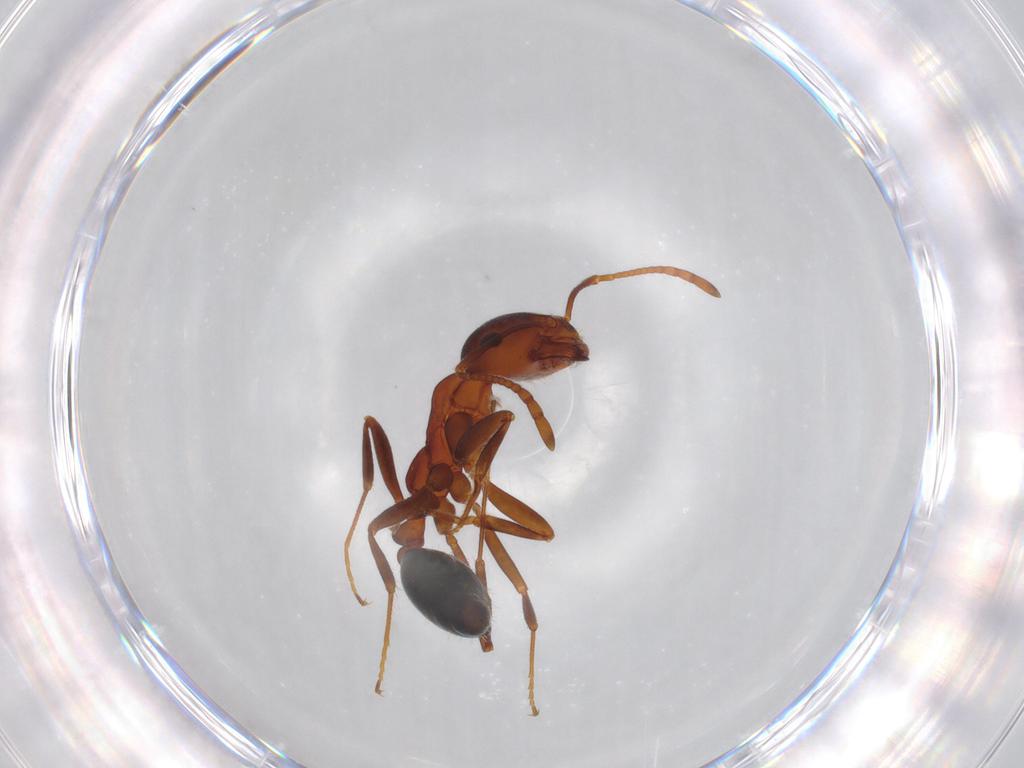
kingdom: Animalia
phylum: Arthropoda
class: Insecta
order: Hymenoptera
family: Formicidae
